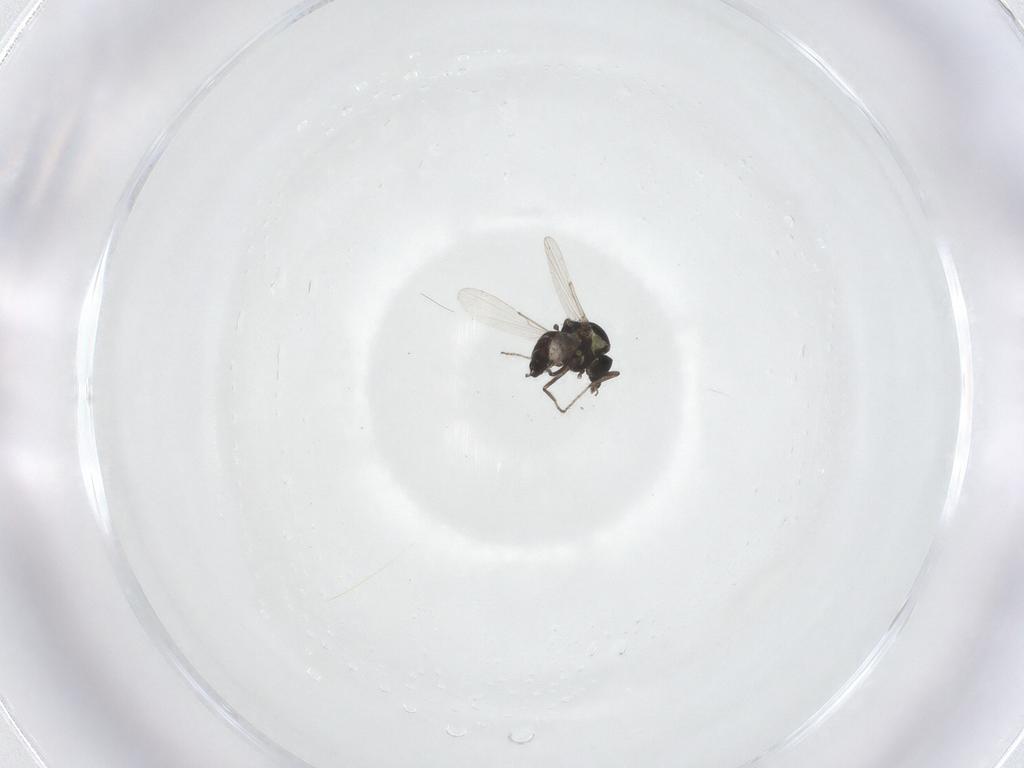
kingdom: Animalia
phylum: Arthropoda
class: Insecta
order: Diptera
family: Ceratopogonidae
